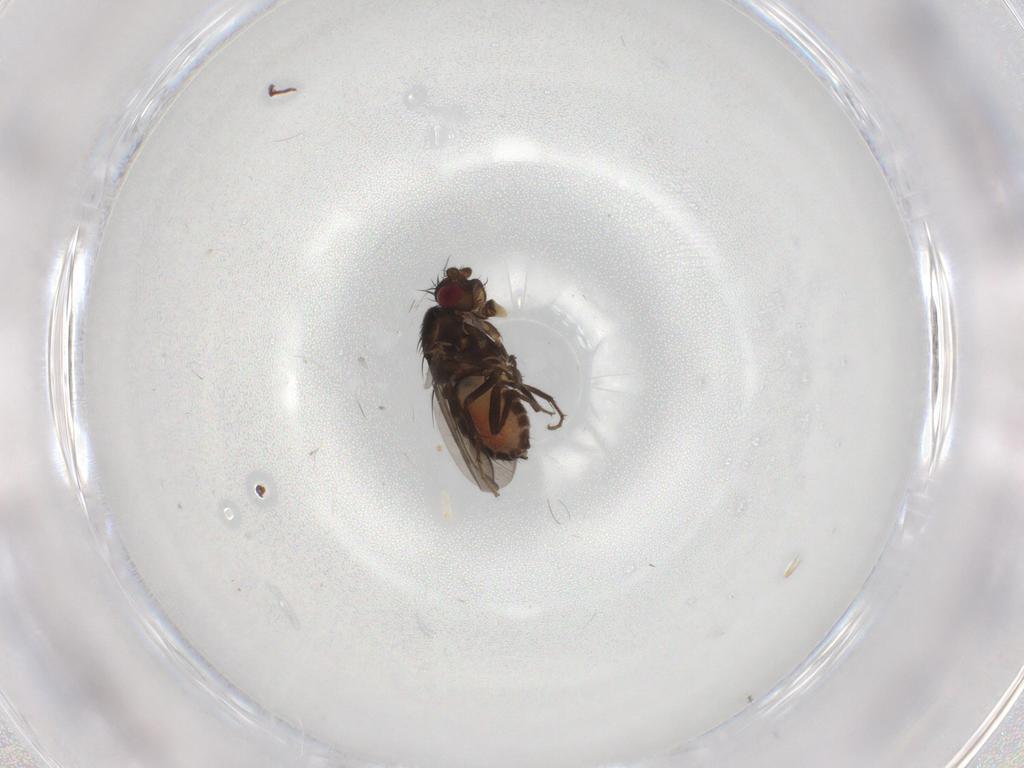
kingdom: Animalia
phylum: Arthropoda
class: Insecta
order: Diptera
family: Sphaeroceridae
